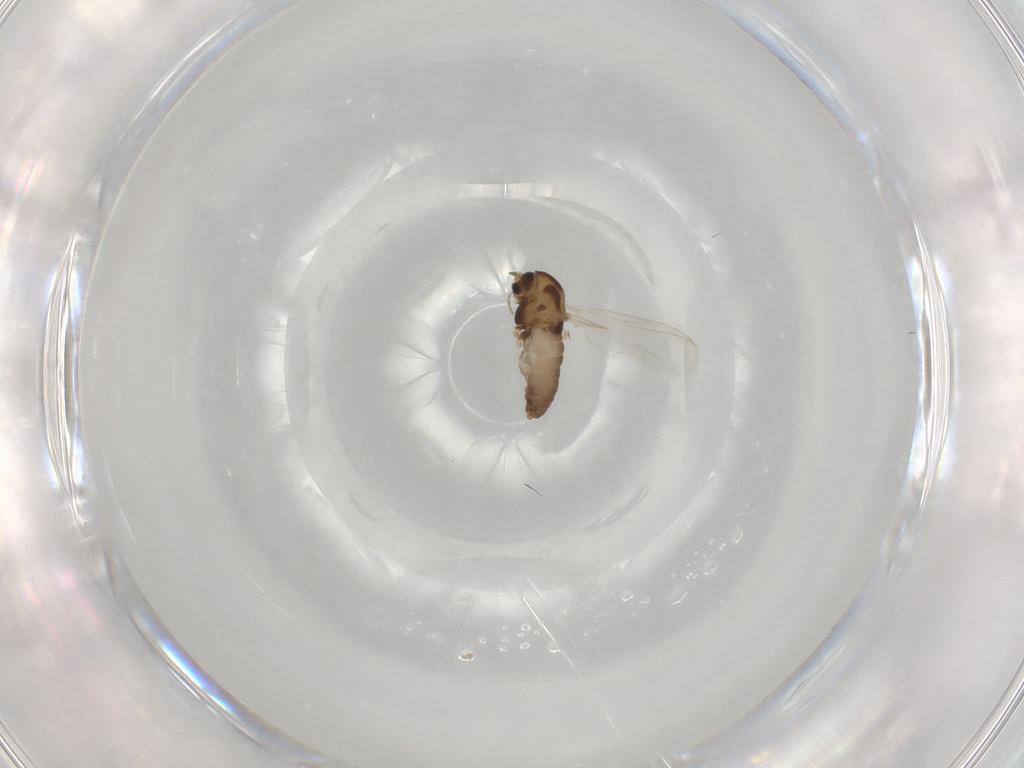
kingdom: Animalia
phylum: Arthropoda
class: Insecta
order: Diptera
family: Chironomidae
